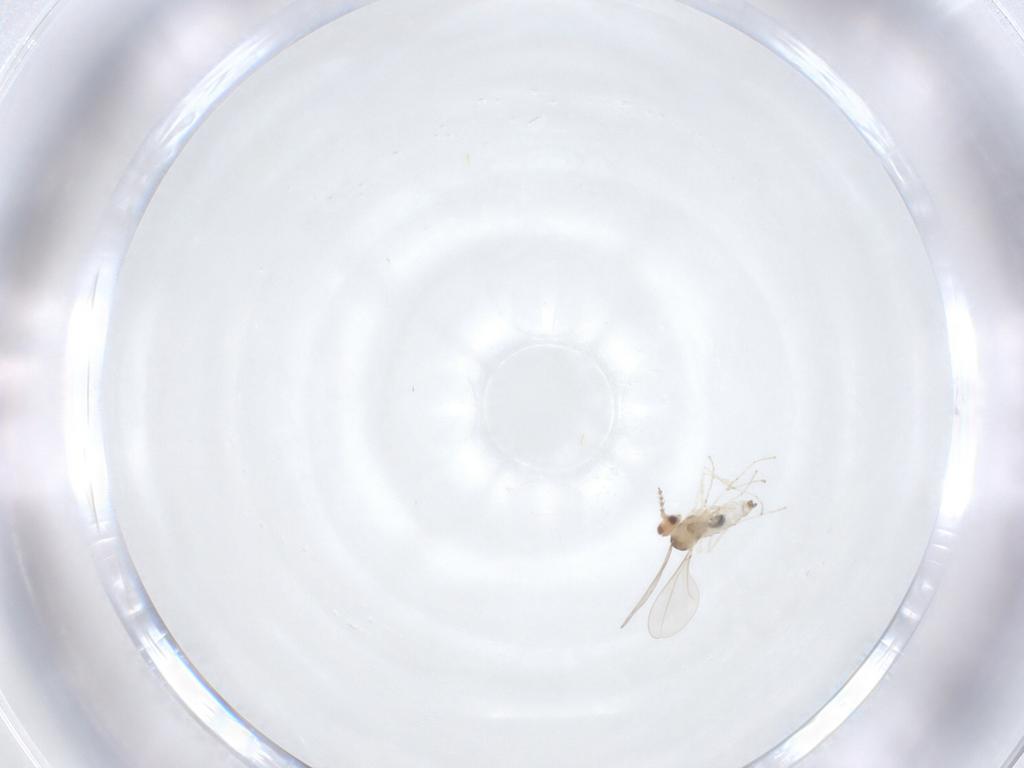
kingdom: Animalia
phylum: Arthropoda
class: Insecta
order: Diptera
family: Cecidomyiidae
